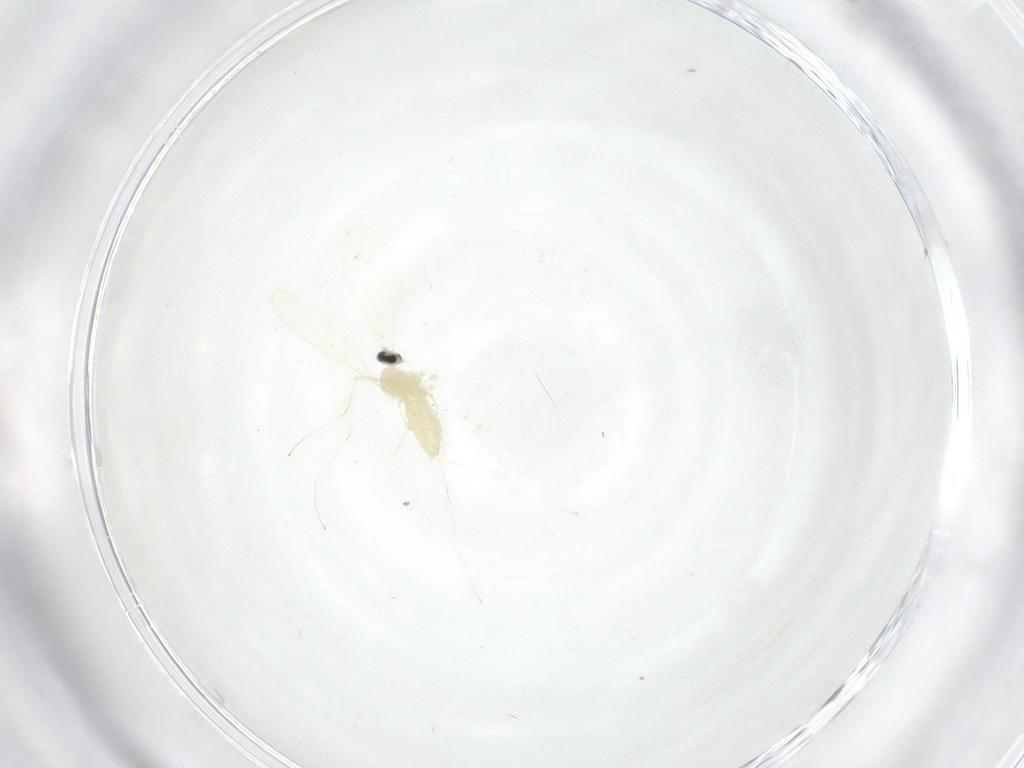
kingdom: Animalia
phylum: Arthropoda
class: Insecta
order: Diptera
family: Cecidomyiidae
